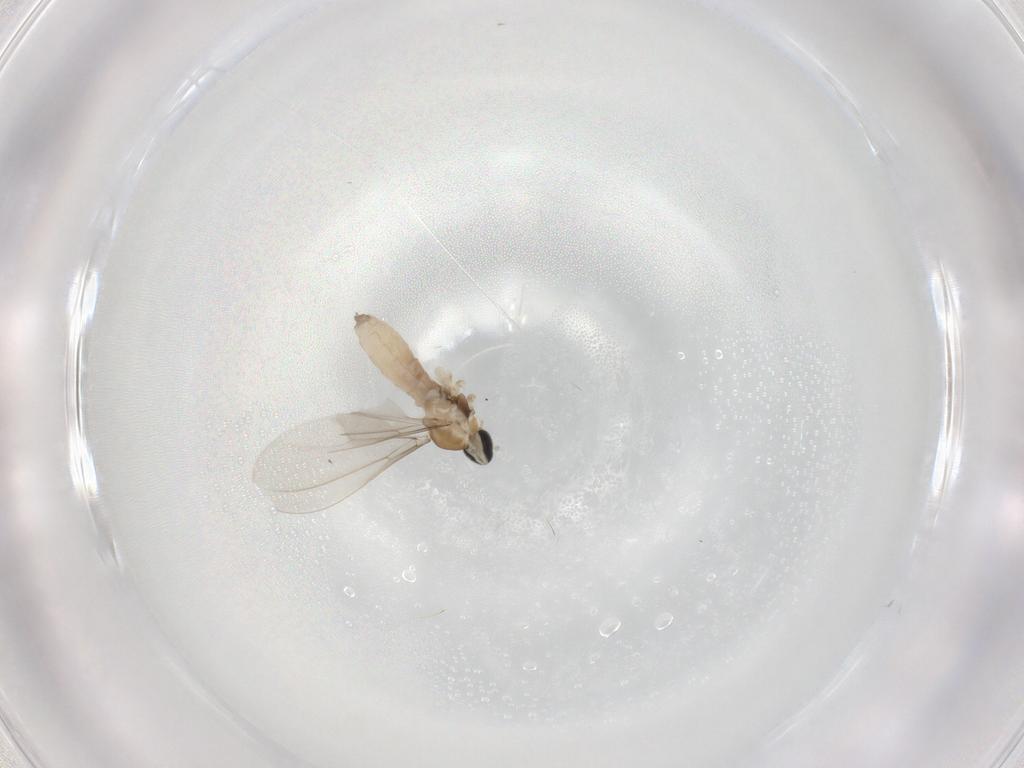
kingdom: Animalia
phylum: Arthropoda
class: Insecta
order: Diptera
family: Cecidomyiidae
